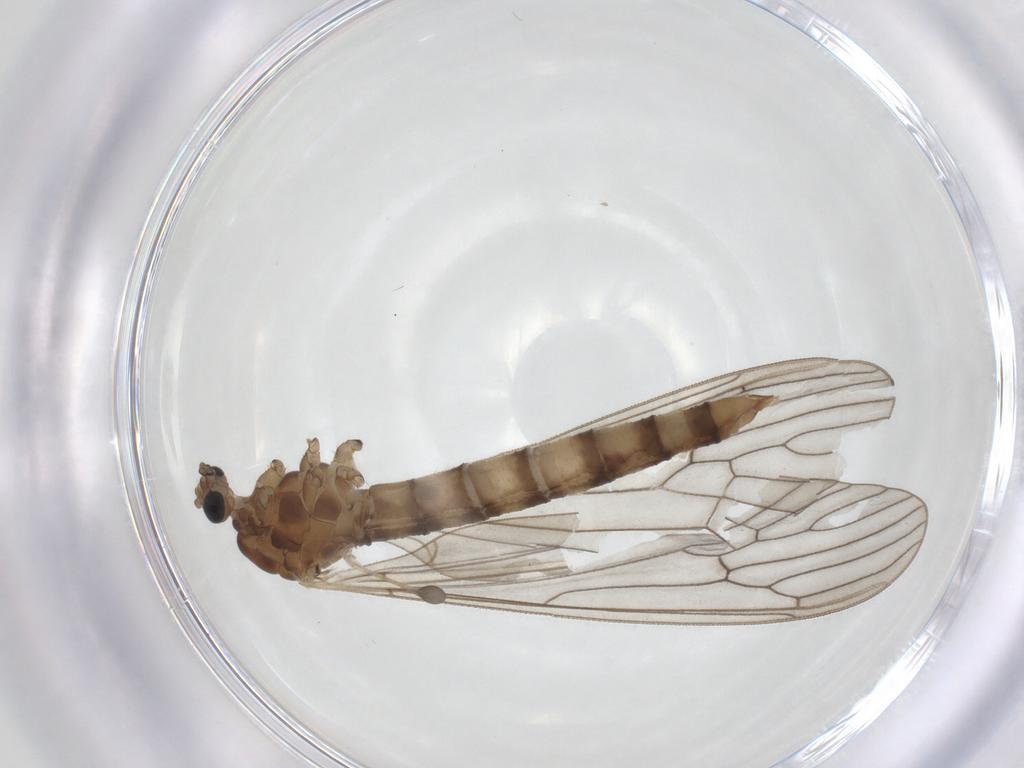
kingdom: Animalia
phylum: Arthropoda
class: Insecta
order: Diptera
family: Trichoceridae
